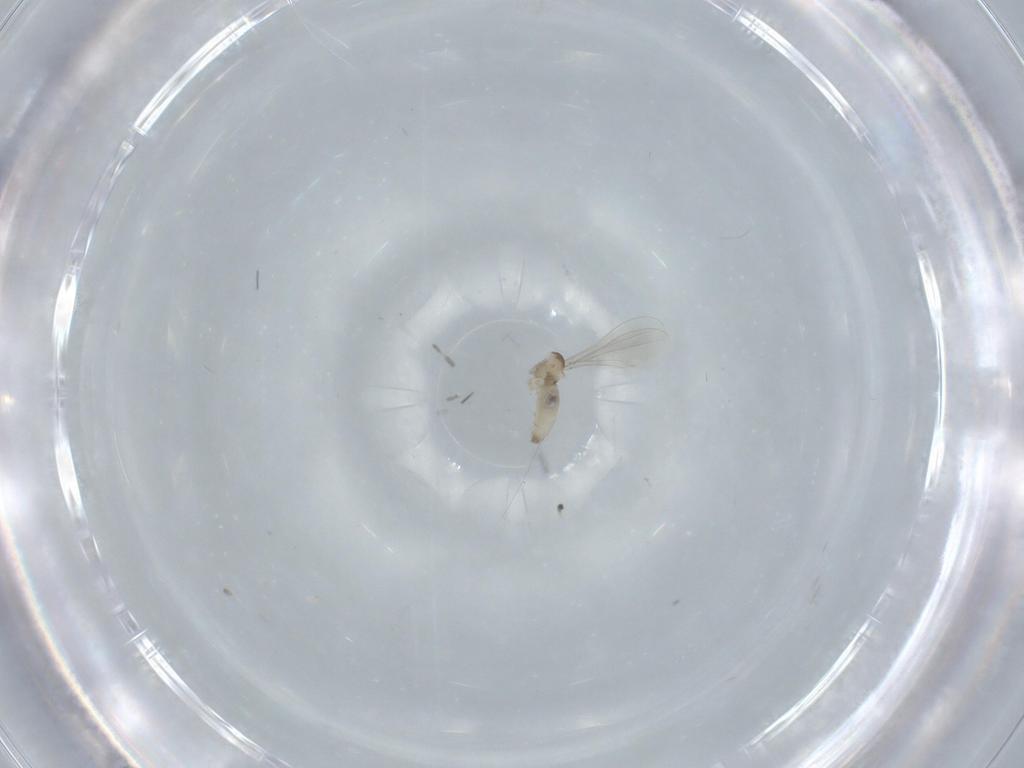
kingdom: Animalia
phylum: Arthropoda
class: Insecta
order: Diptera
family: Cecidomyiidae
